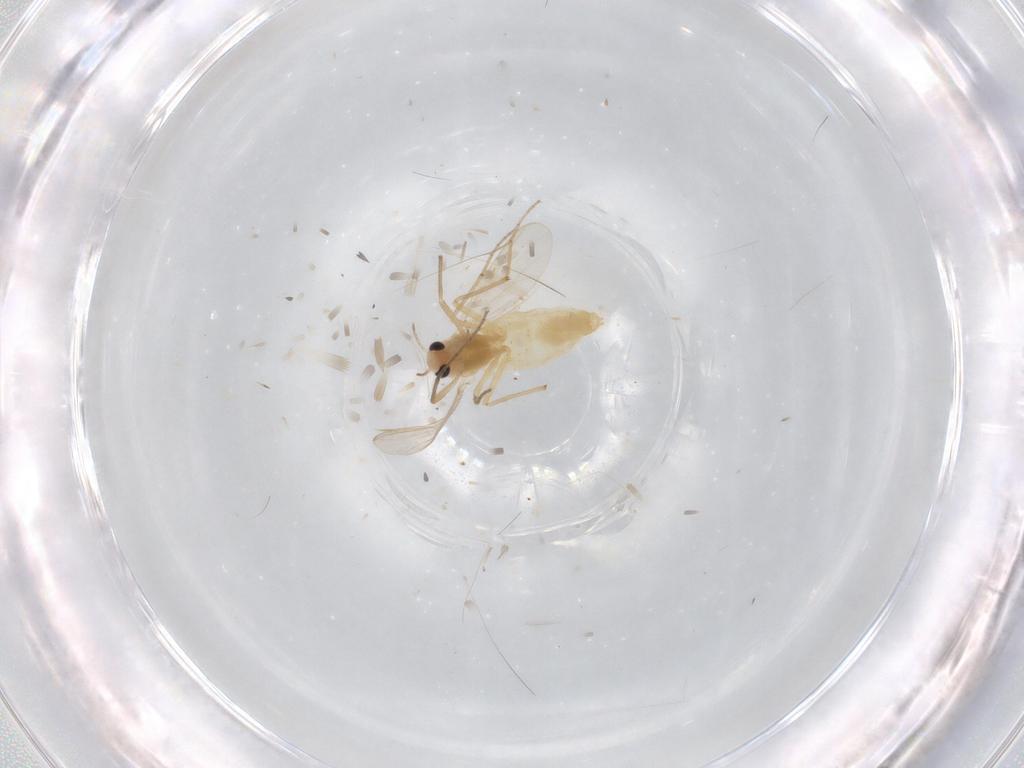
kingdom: Animalia
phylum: Arthropoda
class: Insecta
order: Diptera
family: Chironomidae
